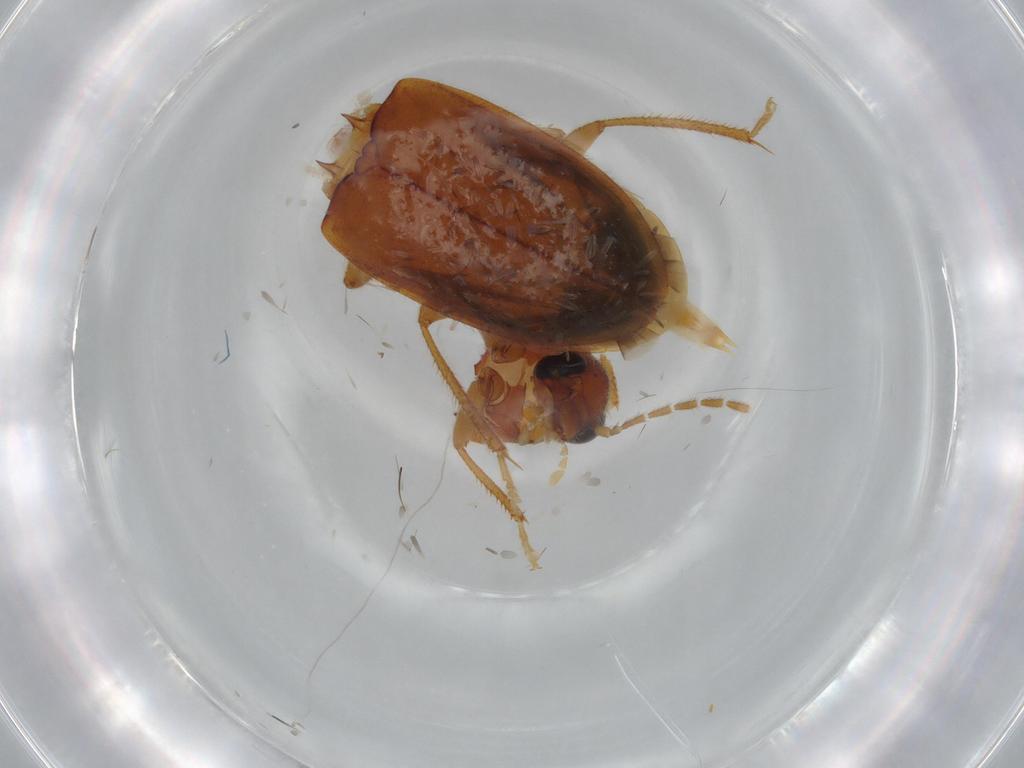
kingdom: Animalia
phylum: Arthropoda
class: Insecta
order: Coleoptera
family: Ptilodactylidae
